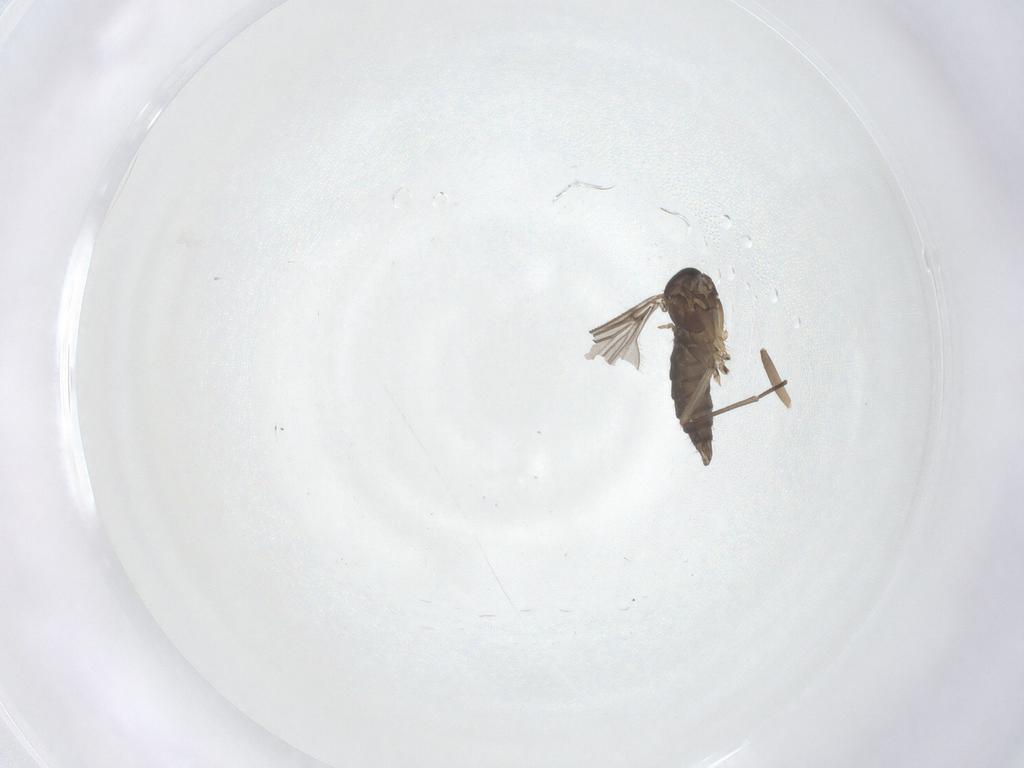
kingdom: Animalia
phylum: Arthropoda
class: Insecta
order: Diptera
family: Sciaridae
